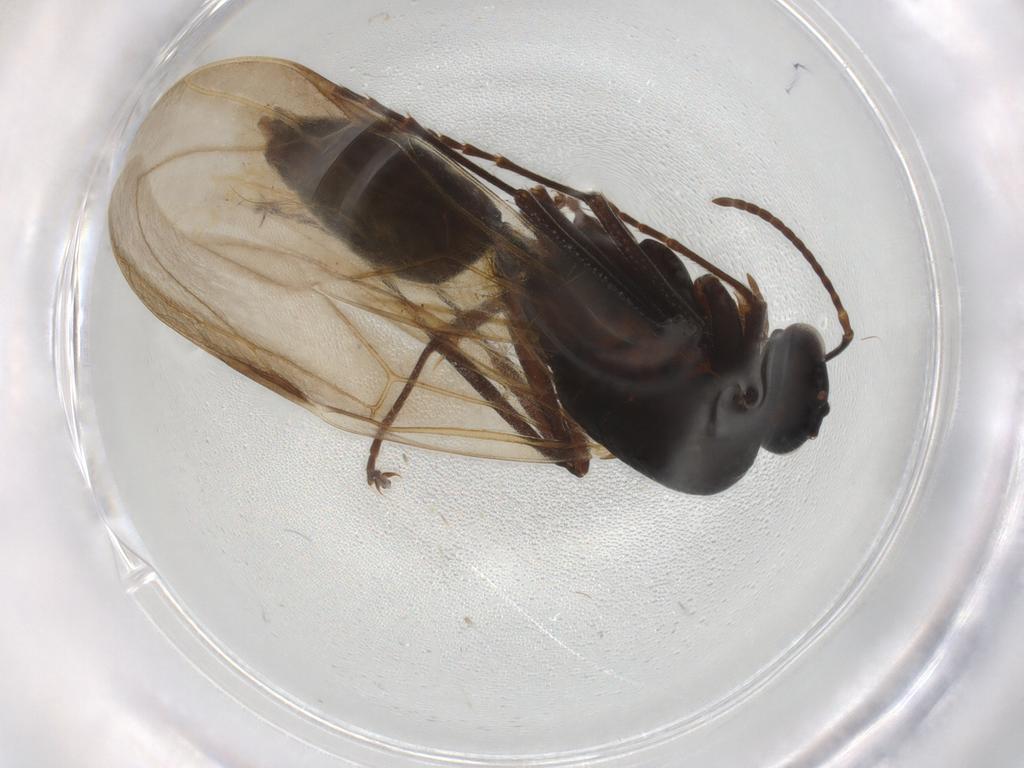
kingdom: Animalia
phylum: Arthropoda
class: Insecta
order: Hymenoptera
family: Formicidae
